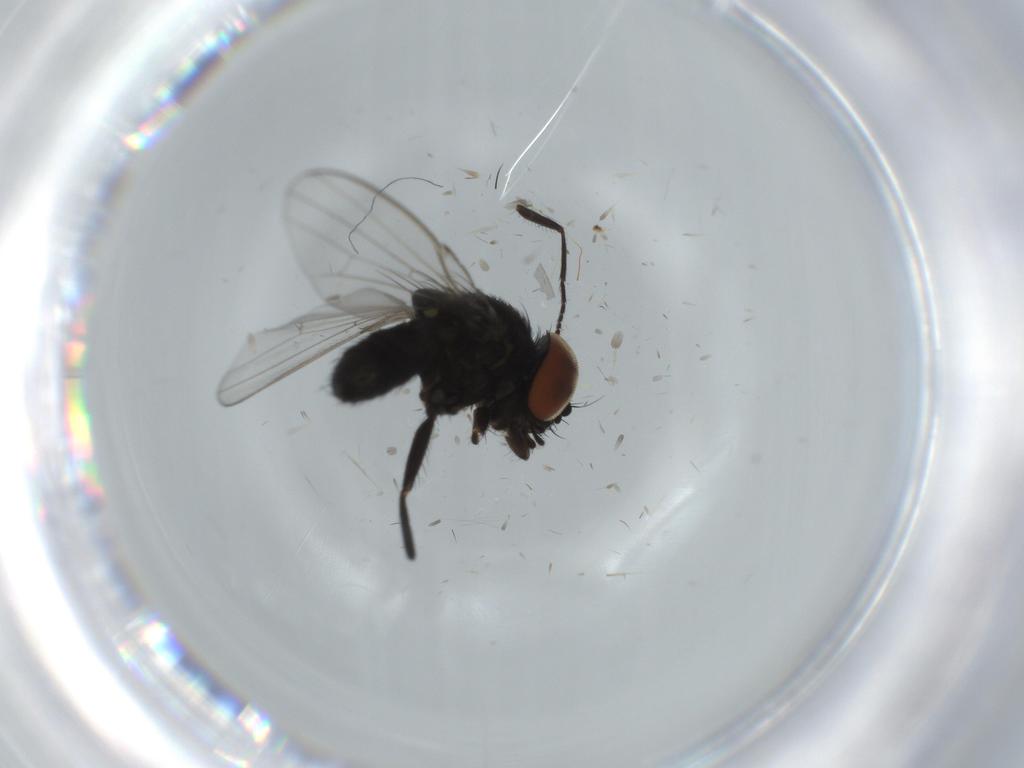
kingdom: Animalia
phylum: Arthropoda
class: Insecta
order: Diptera
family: Milichiidae
